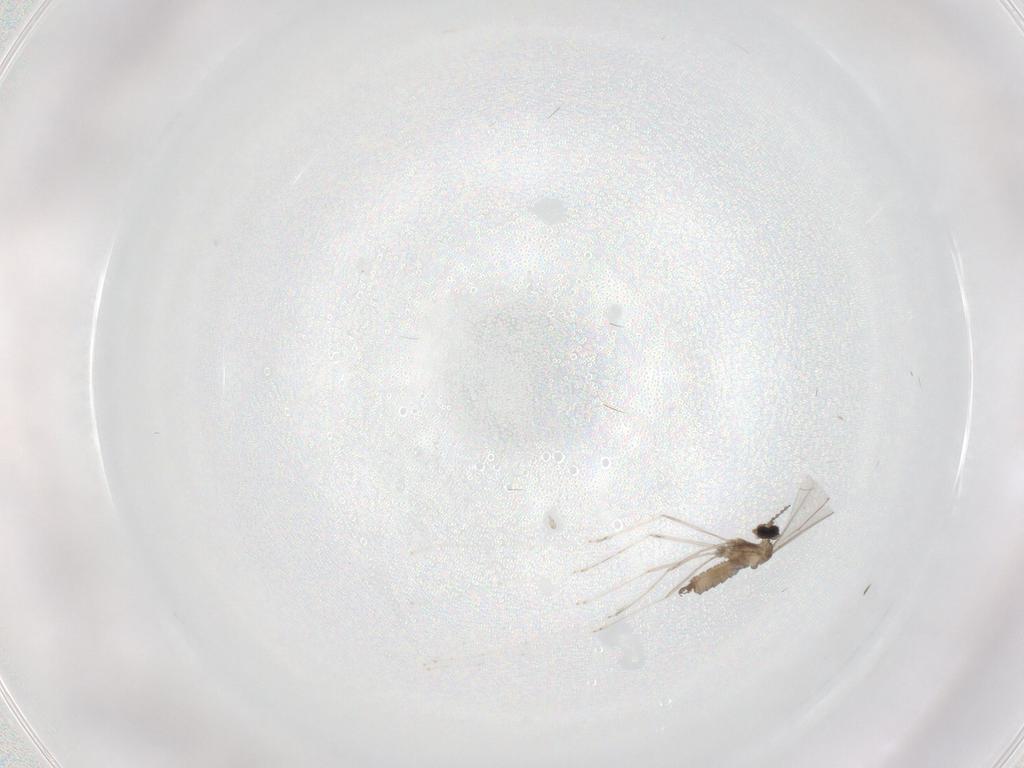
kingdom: Animalia
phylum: Arthropoda
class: Insecta
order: Diptera
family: Cecidomyiidae
